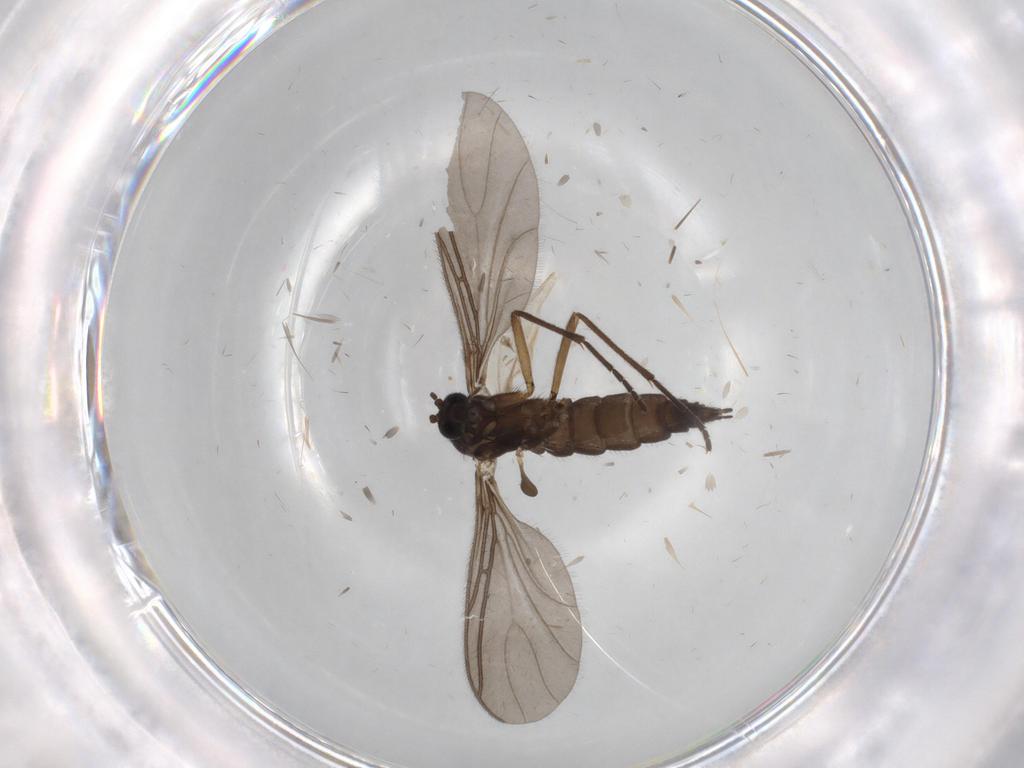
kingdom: Animalia
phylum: Arthropoda
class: Insecta
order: Diptera
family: Sciaridae
